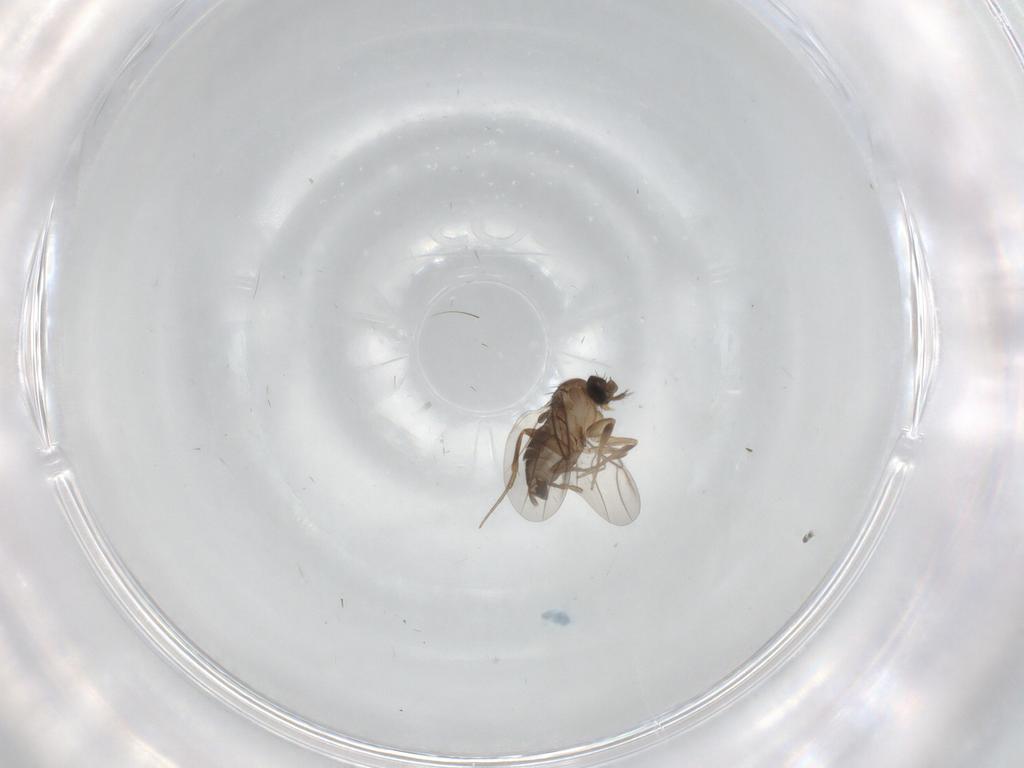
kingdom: Animalia
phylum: Arthropoda
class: Insecta
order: Diptera
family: Phoridae
